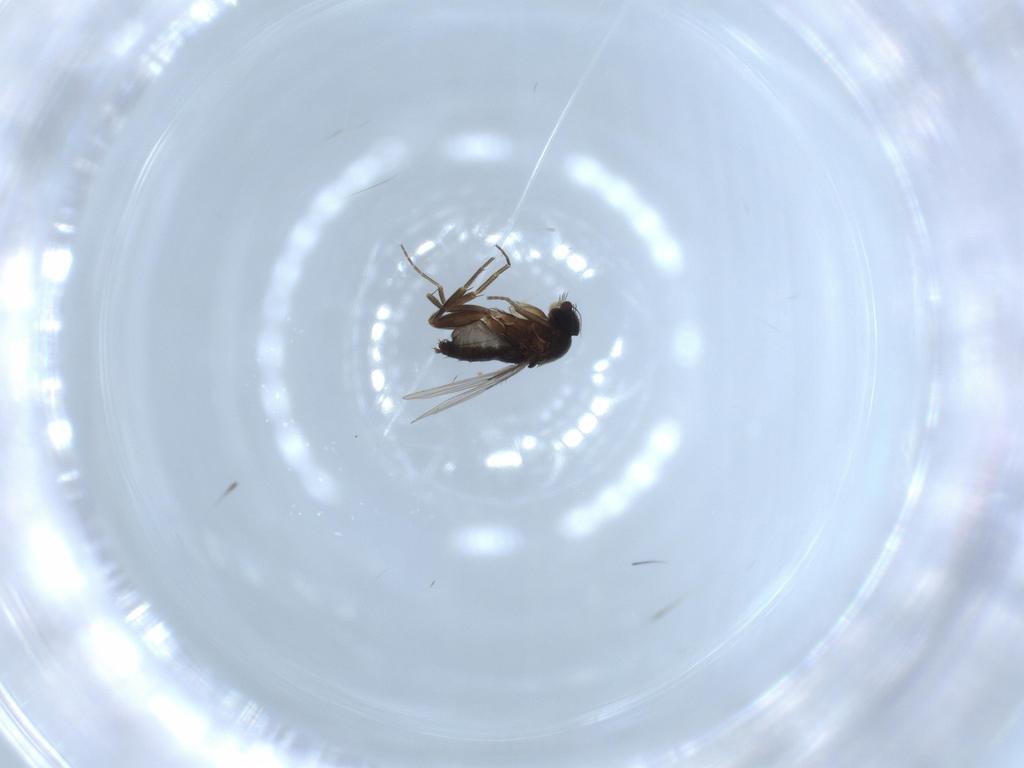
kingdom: Animalia
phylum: Arthropoda
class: Insecta
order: Diptera
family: Phoridae
